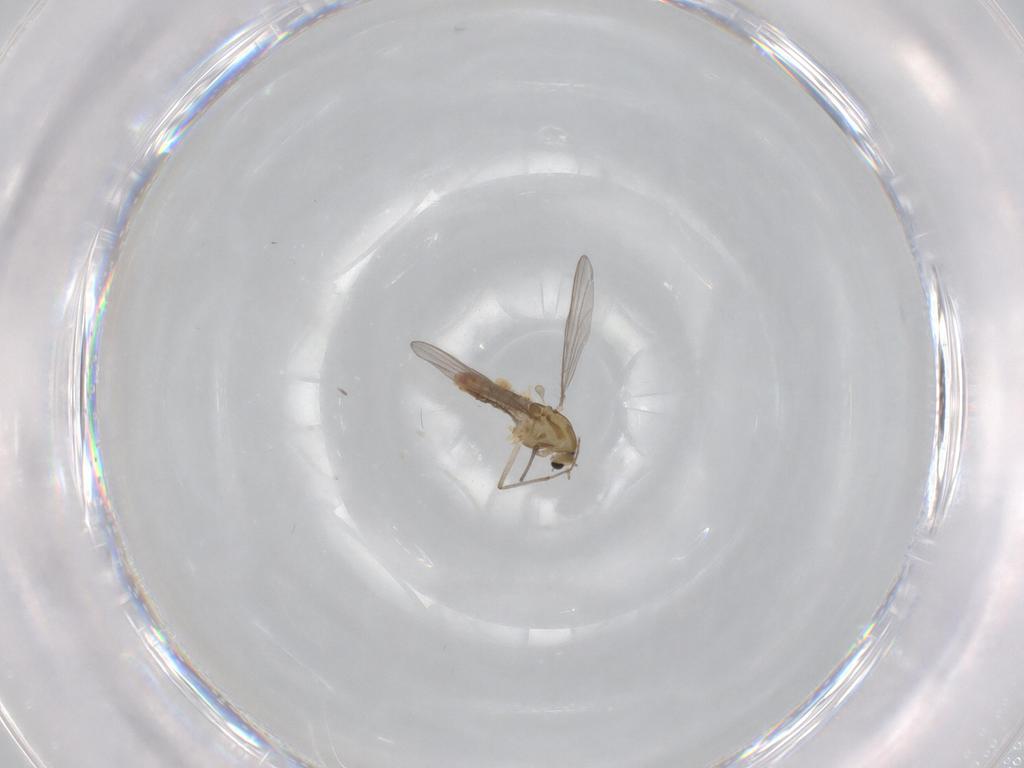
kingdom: Animalia
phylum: Arthropoda
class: Insecta
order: Diptera
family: Chironomidae
